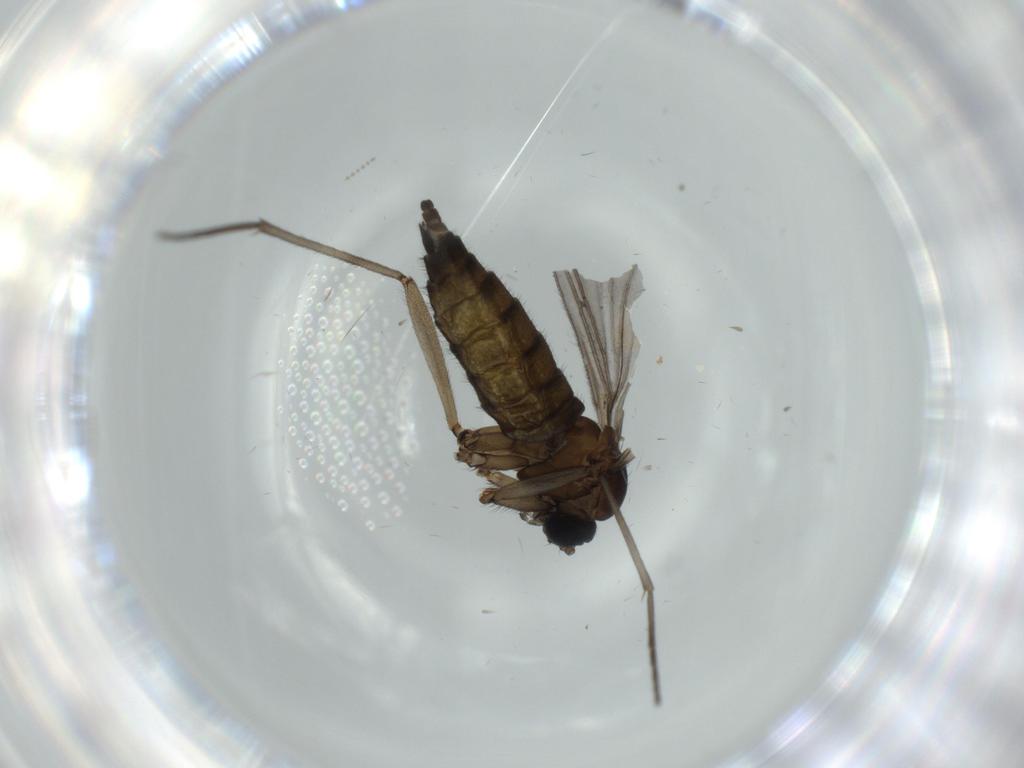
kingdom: Animalia
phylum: Arthropoda
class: Insecta
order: Diptera
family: Sciaridae
